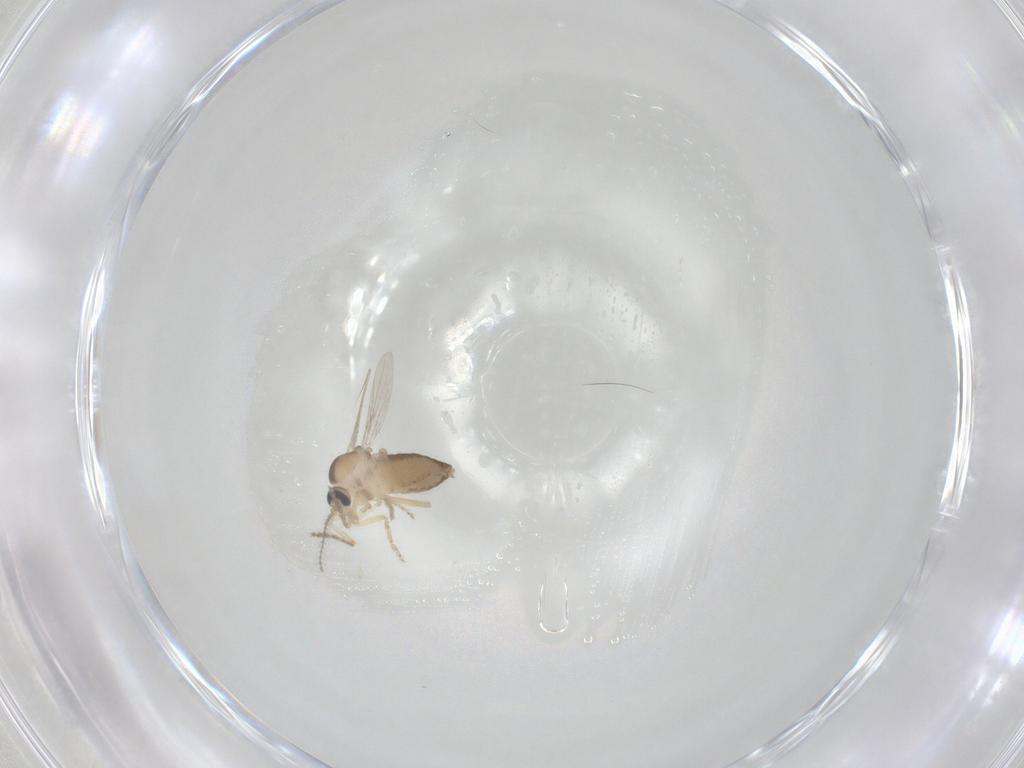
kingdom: Animalia
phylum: Arthropoda
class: Insecta
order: Diptera
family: Ceratopogonidae
